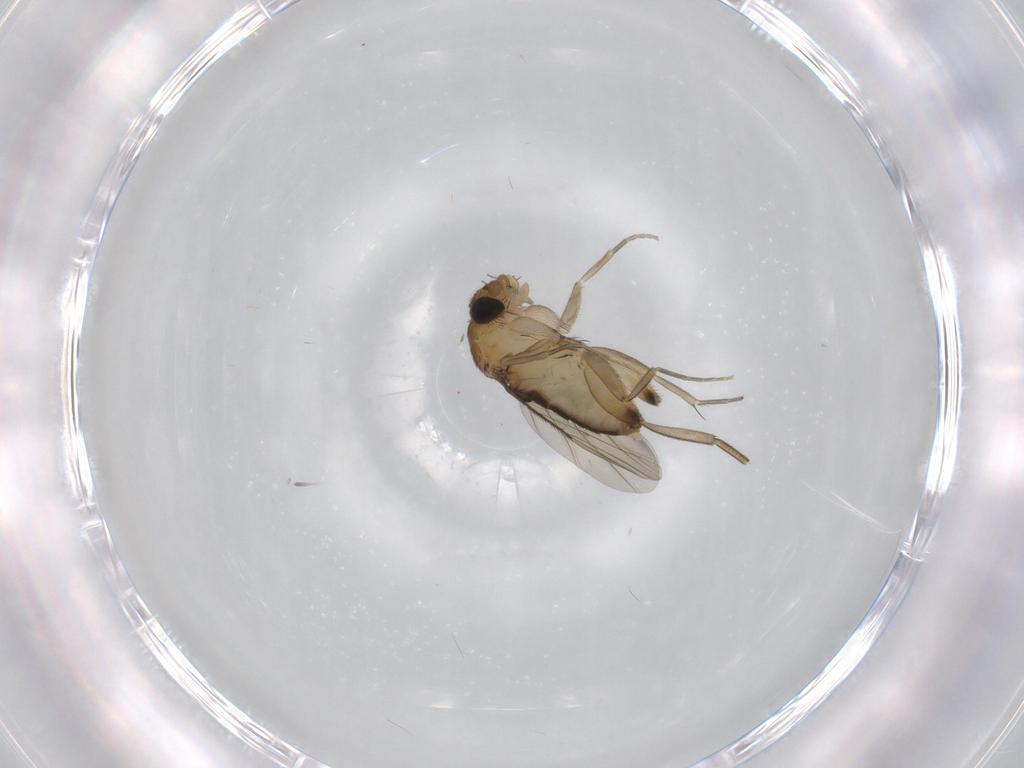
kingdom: Animalia
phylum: Arthropoda
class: Insecta
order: Diptera
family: Phoridae
